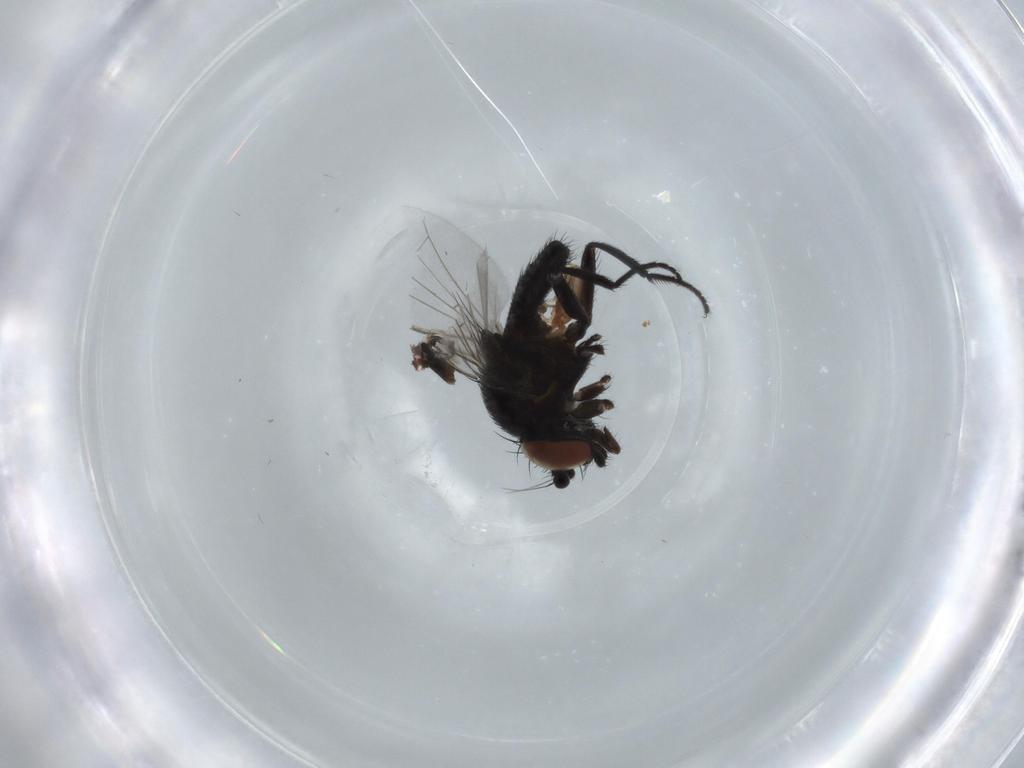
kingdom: Animalia
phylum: Arthropoda
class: Insecta
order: Diptera
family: Milichiidae
